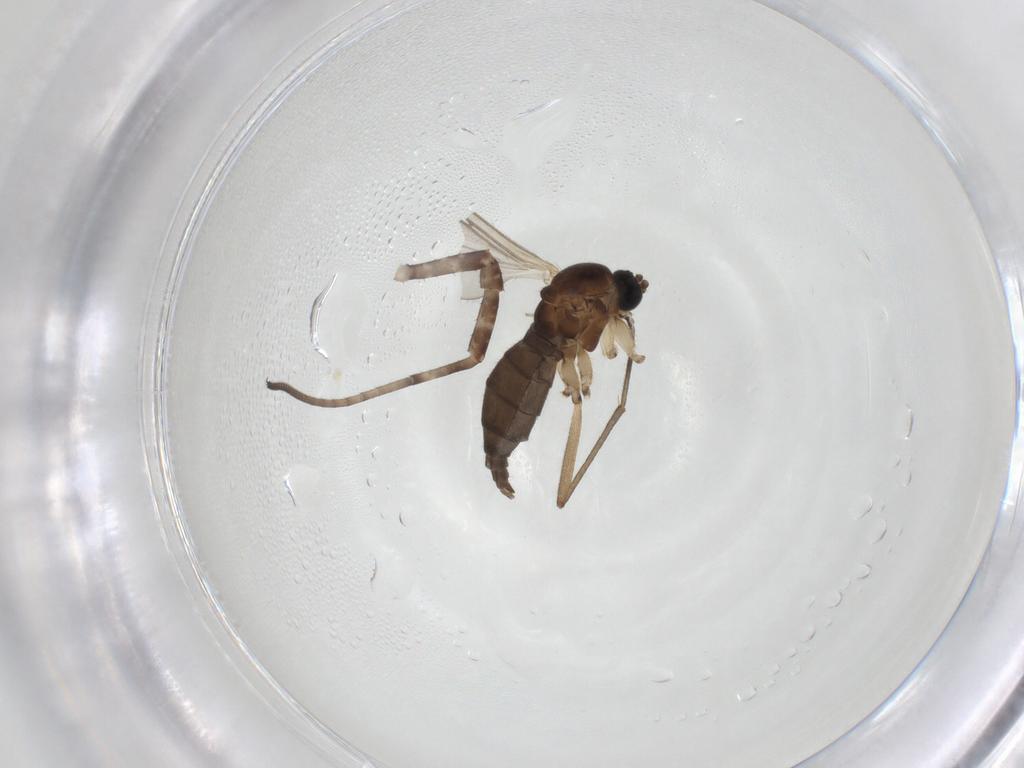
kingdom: Animalia
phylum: Arthropoda
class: Insecta
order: Diptera
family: Sciaridae
